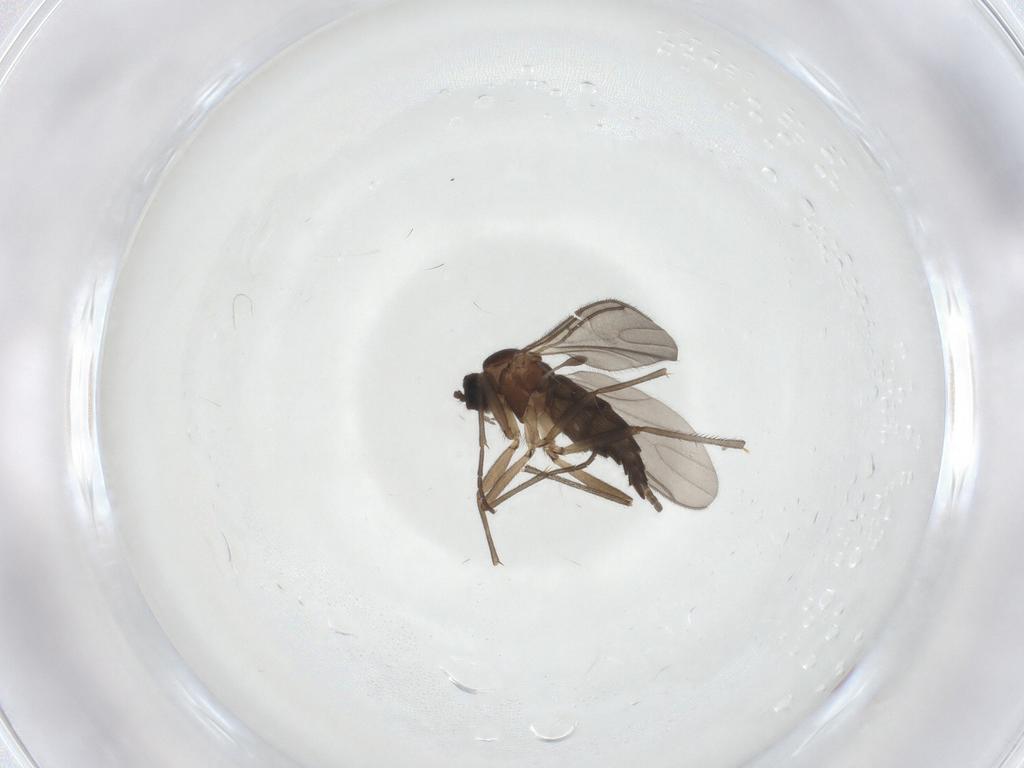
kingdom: Animalia
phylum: Arthropoda
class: Insecta
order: Diptera
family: Sciaridae
